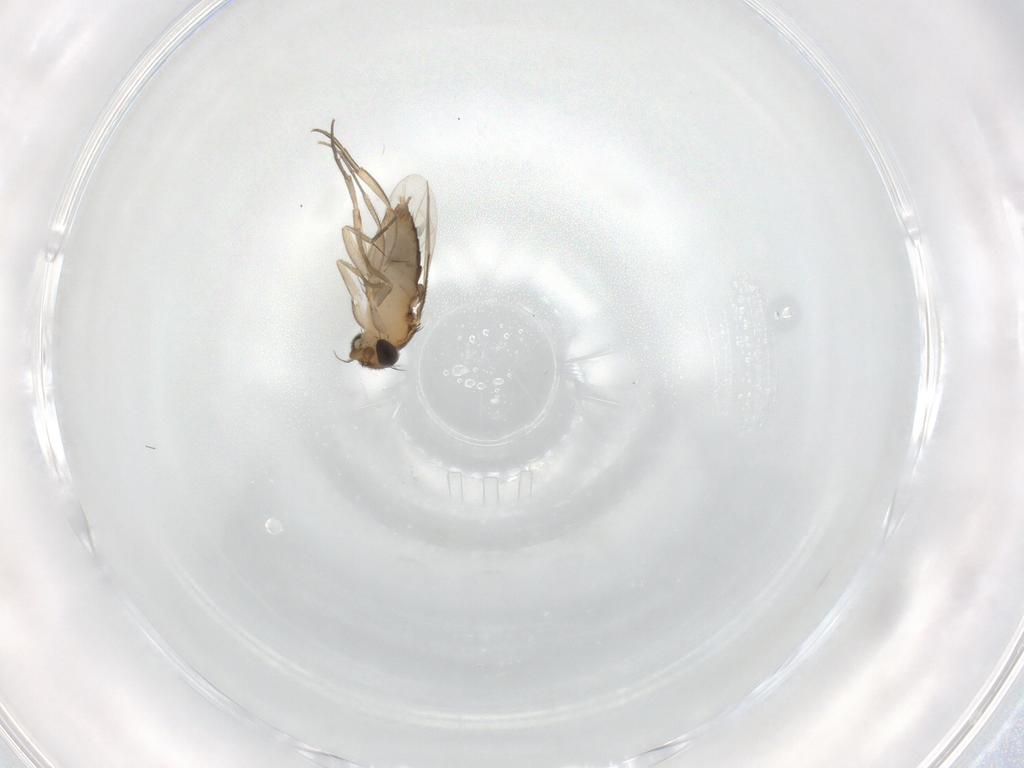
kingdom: Animalia
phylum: Arthropoda
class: Insecta
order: Diptera
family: Phoridae
